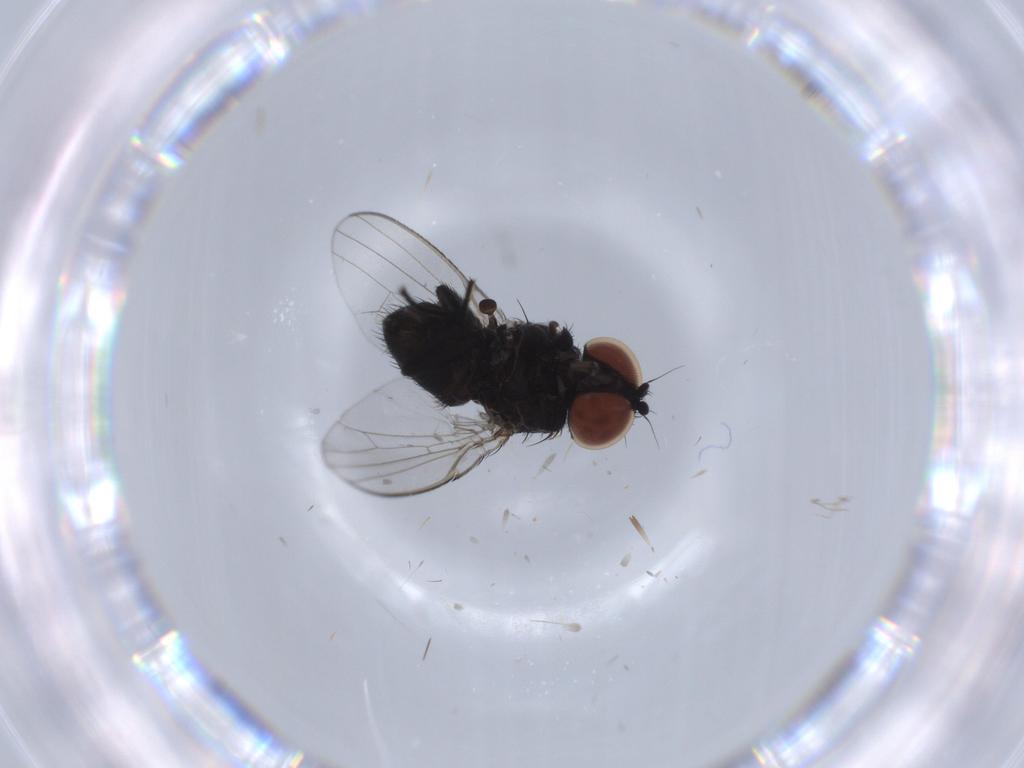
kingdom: Animalia
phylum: Arthropoda
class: Insecta
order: Diptera
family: Milichiidae
